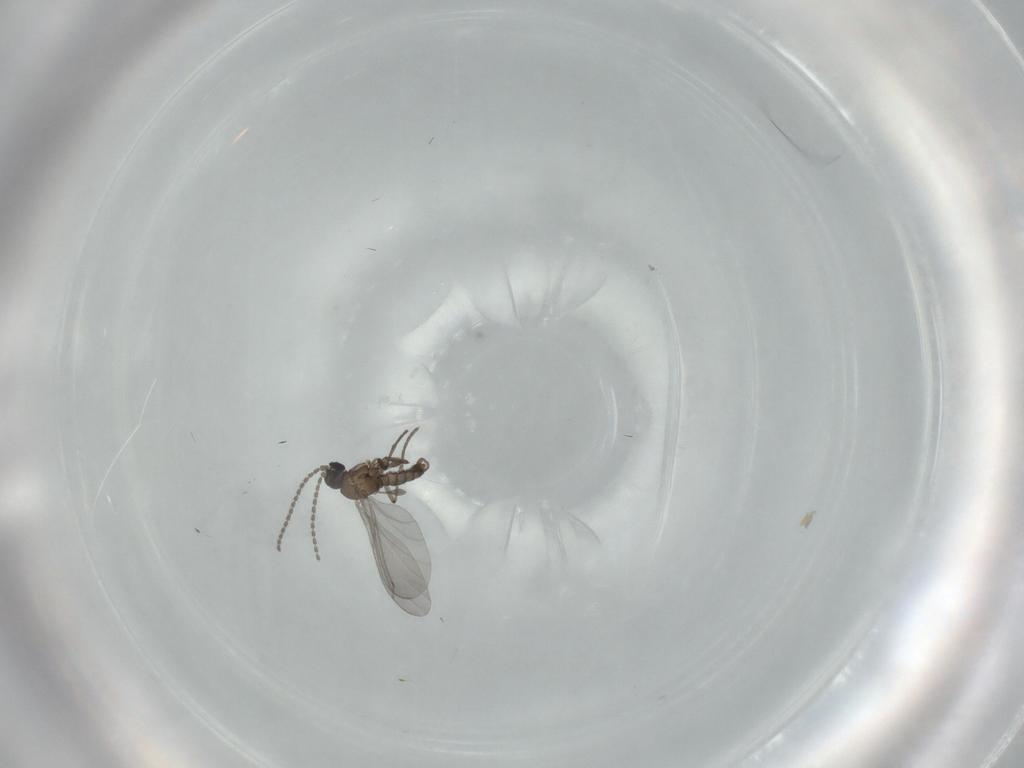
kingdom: Animalia
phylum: Arthropoda
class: Insecta
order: Diptera
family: Sciaridae
